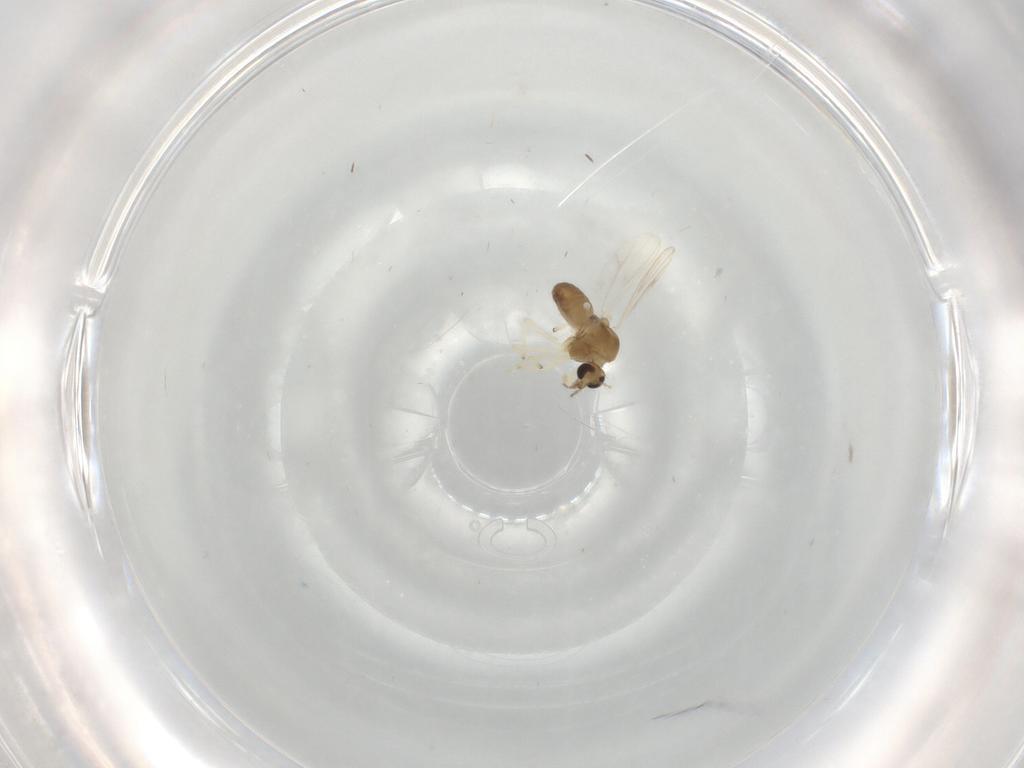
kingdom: Animalia
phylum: Arthropoda
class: Insecta
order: Diptera
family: Chironomidae
